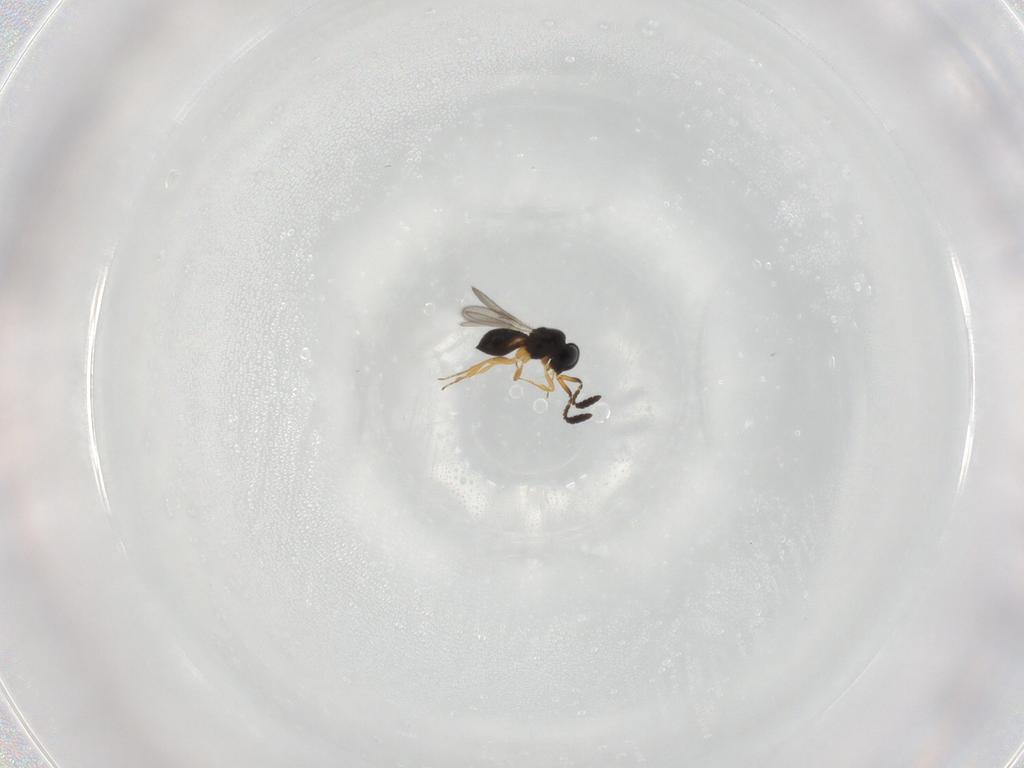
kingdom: Animalia
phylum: Arthropoda
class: Insecta
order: Hymenoptera
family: Scelionidae
